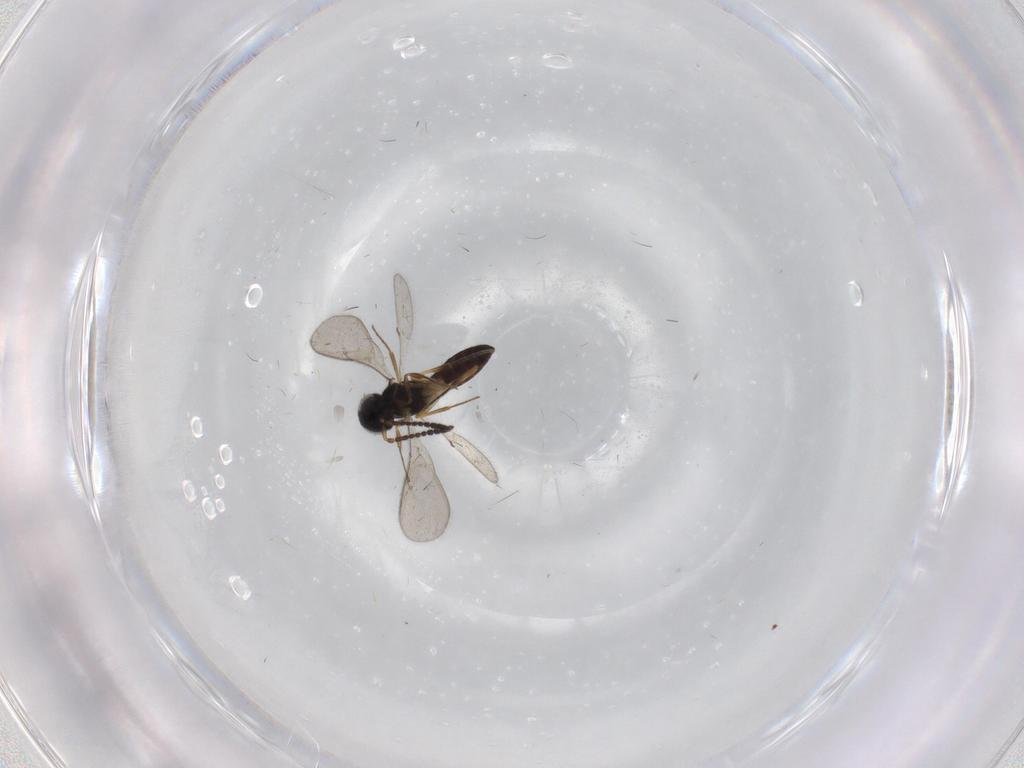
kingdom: Animalia
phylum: Arthropoda
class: Insecta
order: Hymenoptera
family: Scelionidae
